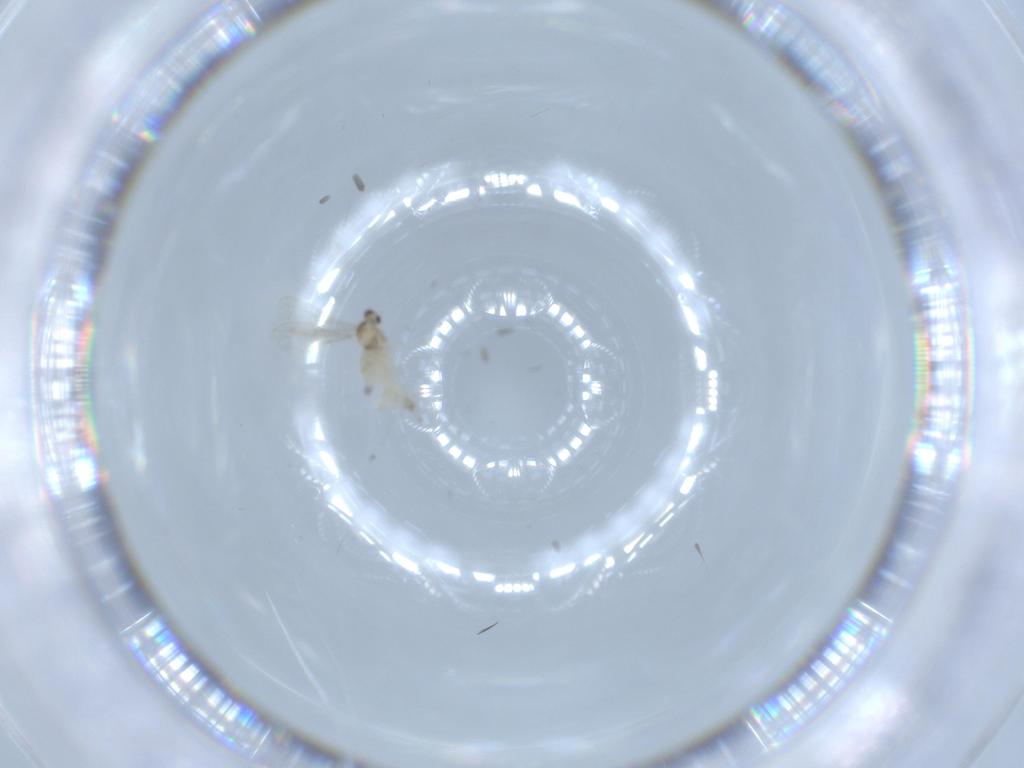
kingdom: Animalia
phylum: Arthropoda
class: Insecta
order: Diptera
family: Cecidomyiidae
